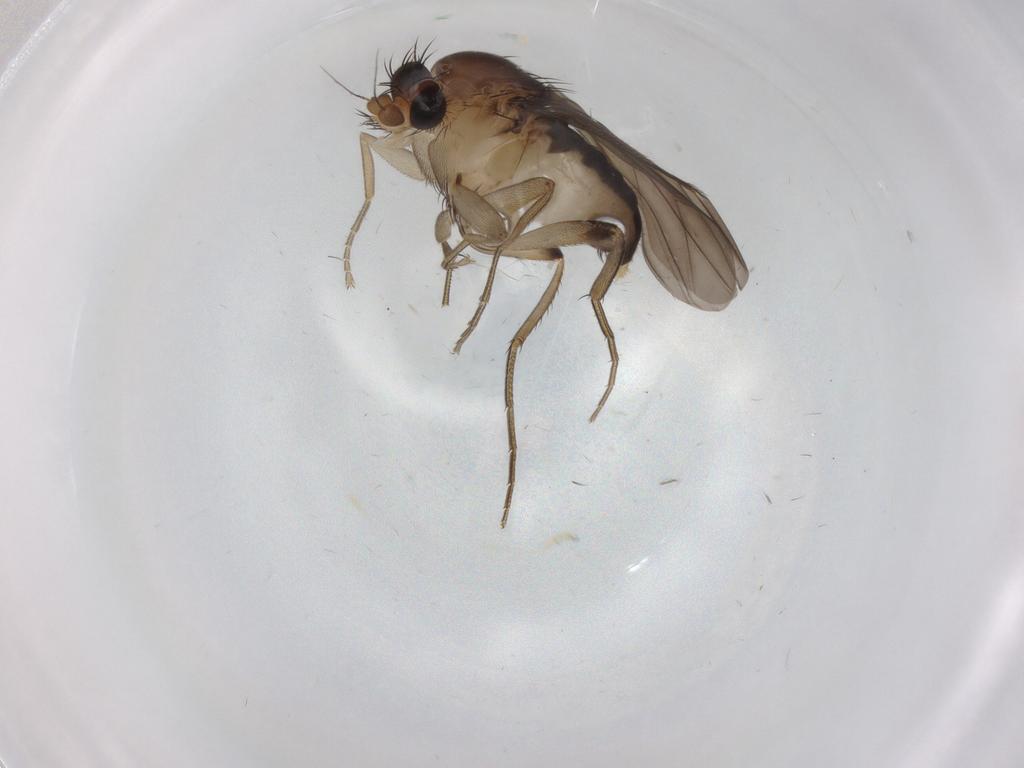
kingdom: Animalia
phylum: Arthropoda
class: Insecta
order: Diptera
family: Phoridae
